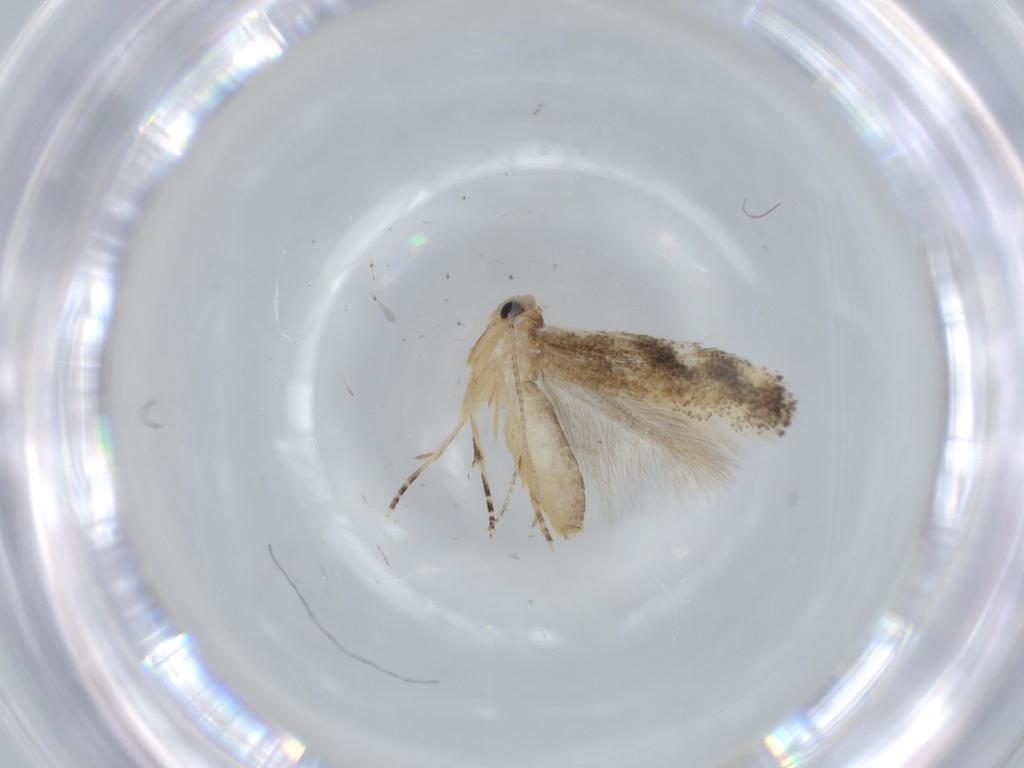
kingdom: Animalia
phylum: Arthropoda
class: Insecta
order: Lepidoptera
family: Bucculatricidae
